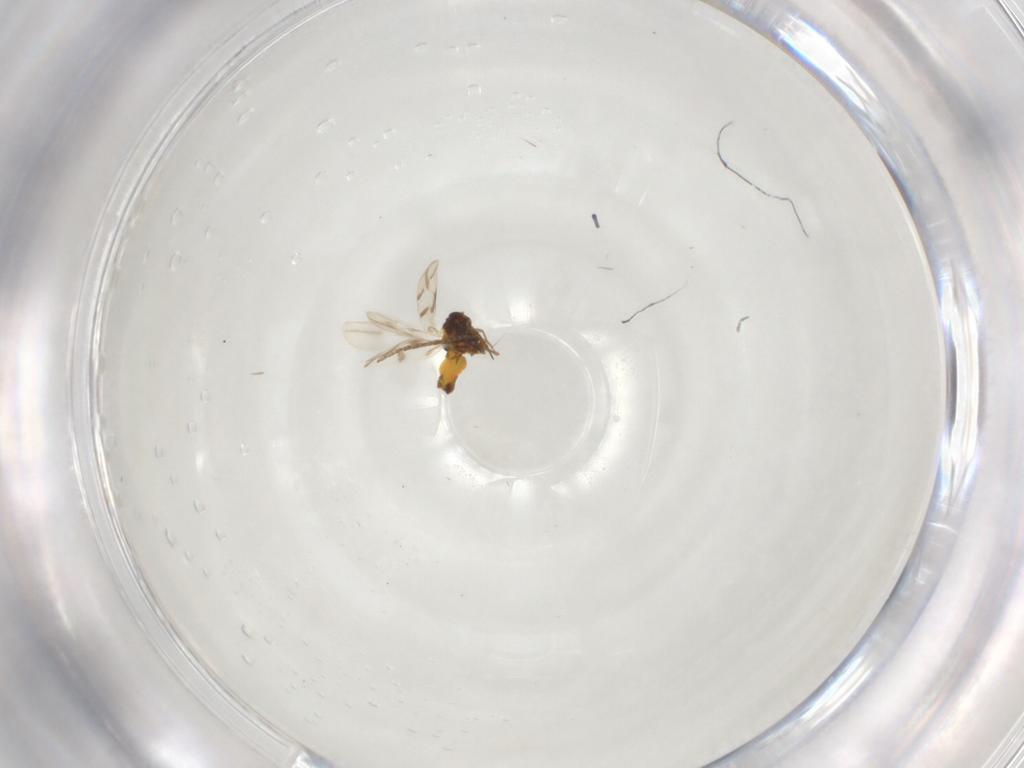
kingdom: Animalia
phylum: Arthropoda
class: Insecta
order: Hemiptera
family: Aleyrodidae
